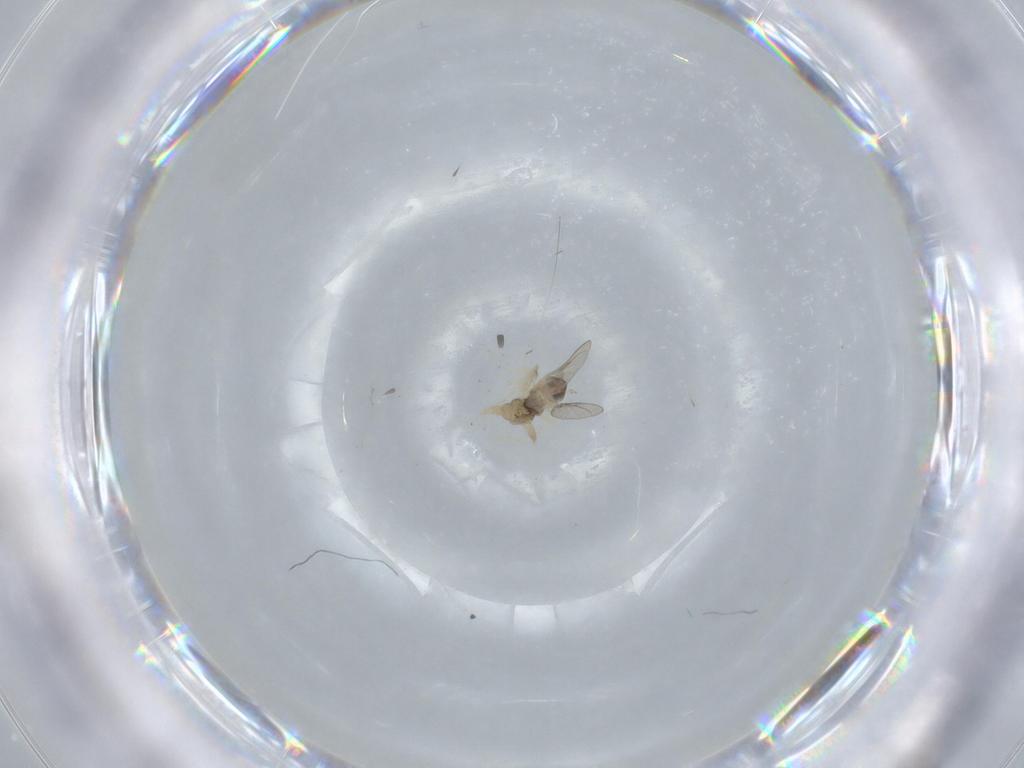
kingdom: Animalia
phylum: Arthropoda
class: Insecta
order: Diptera
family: Cecidomyiidae
